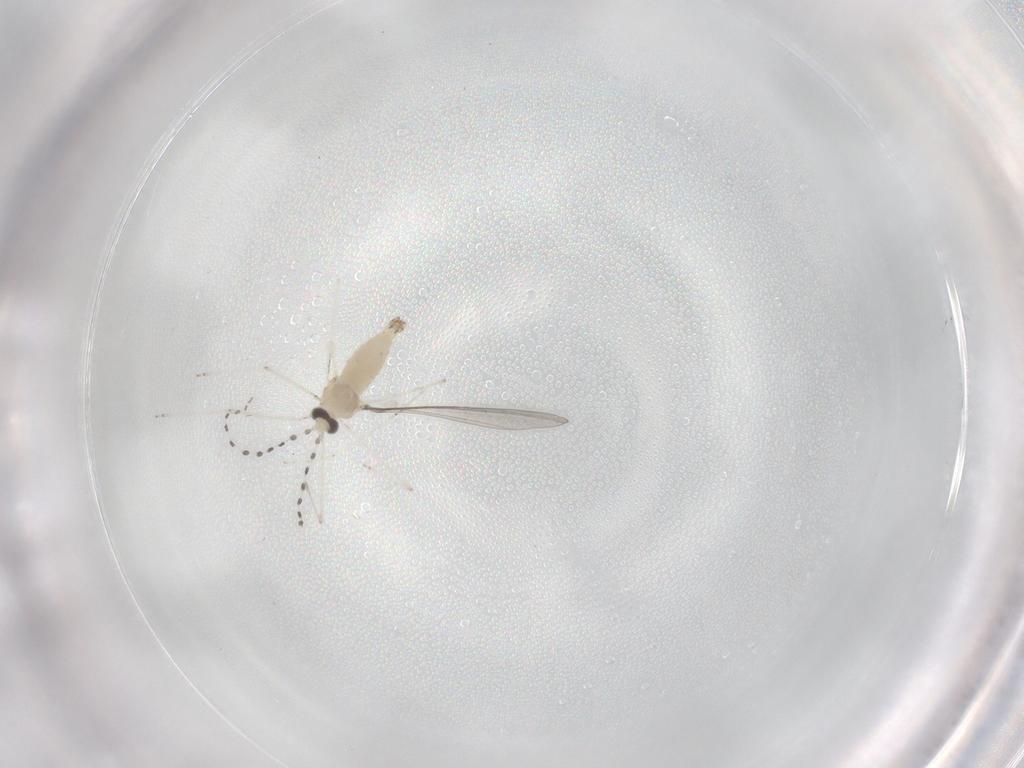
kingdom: Animalia
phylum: Arthropoda
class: Insecta
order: Diptera
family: Cecidomyiidae
